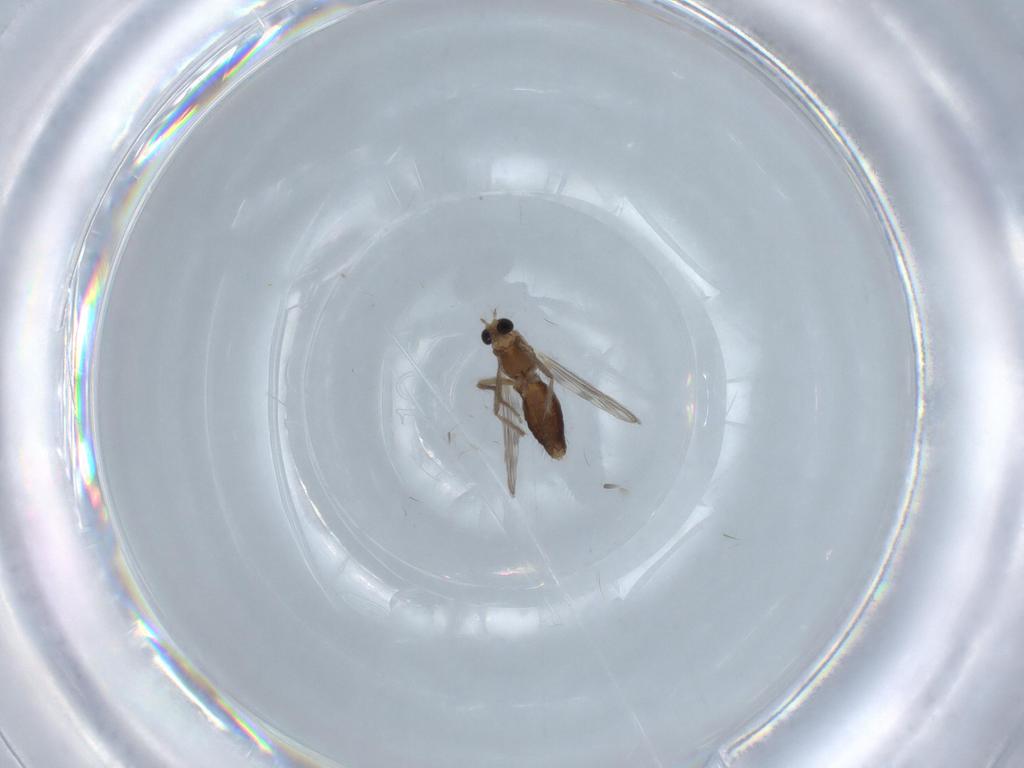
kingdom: Animalia
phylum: Arthropoda
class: Insecta
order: Diptera
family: Chironomidae
